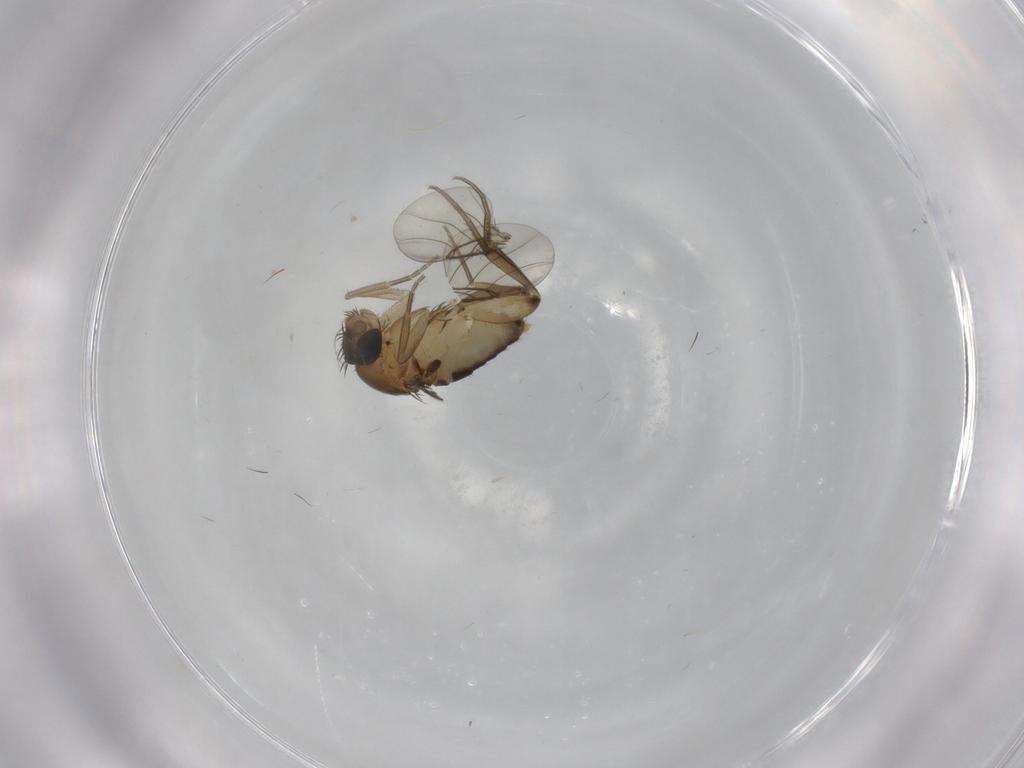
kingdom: Animalia
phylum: Arthropoda
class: Insecta
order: Diptera
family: Phoridae
